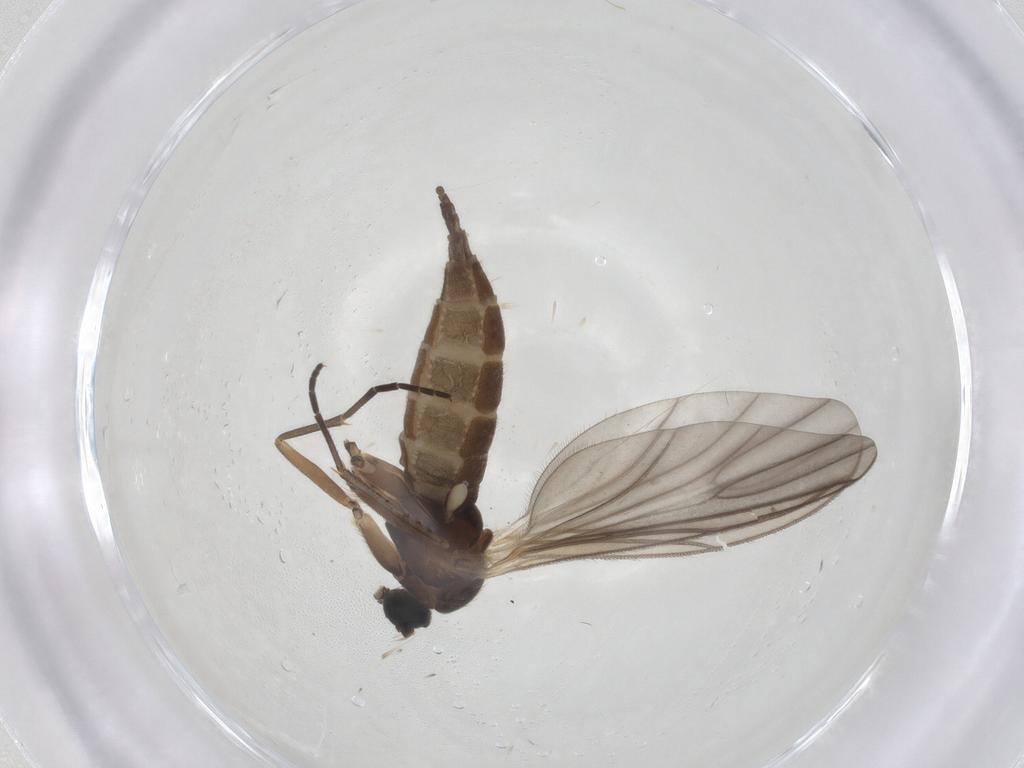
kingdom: Animalia
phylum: Arthropoda
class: Insecta
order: Diptera
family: Sciaridae
